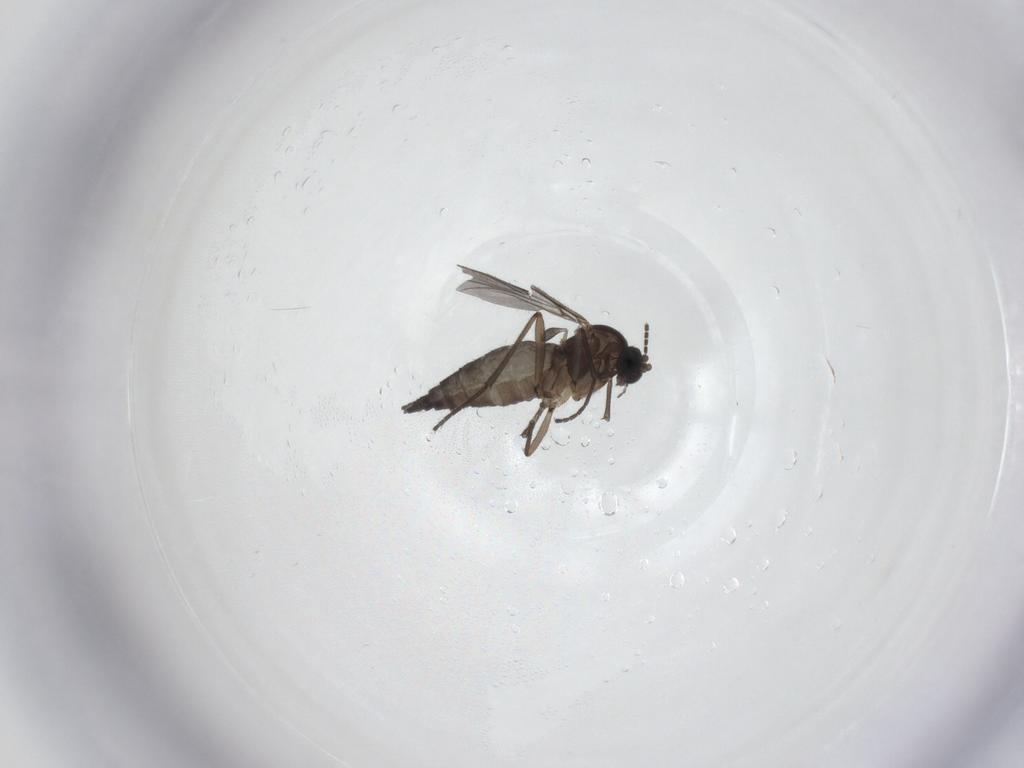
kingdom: Animalia
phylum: Arthropoda
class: Insecta
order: Diptera
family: Sciaridae
